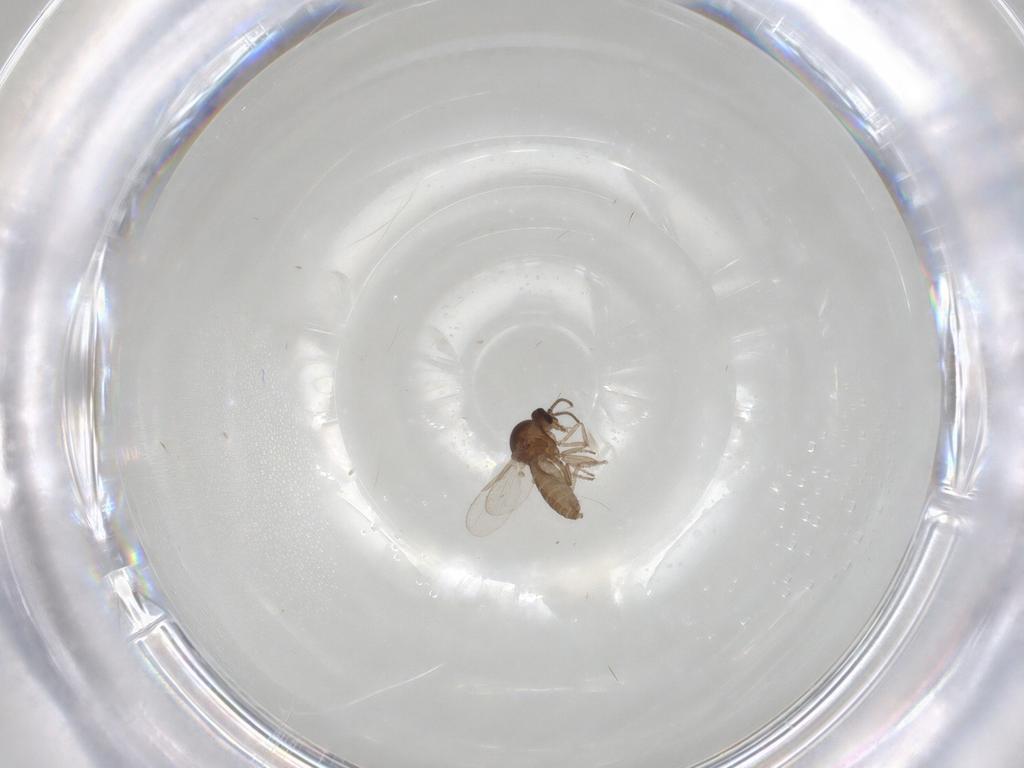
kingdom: Animalia
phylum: Arthropoda
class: Insecta
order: Diptera
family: Ceratopogonidae
